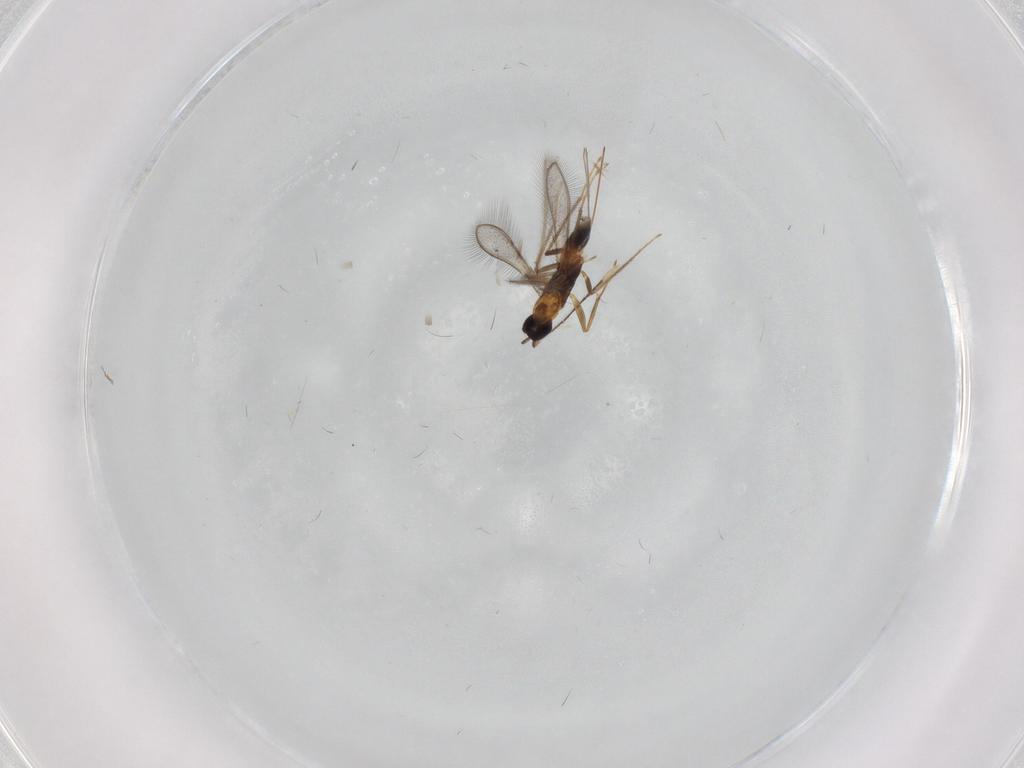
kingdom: Animalia
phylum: Arthropoda
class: Insecta
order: Hymenoptera
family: Mymaridae
